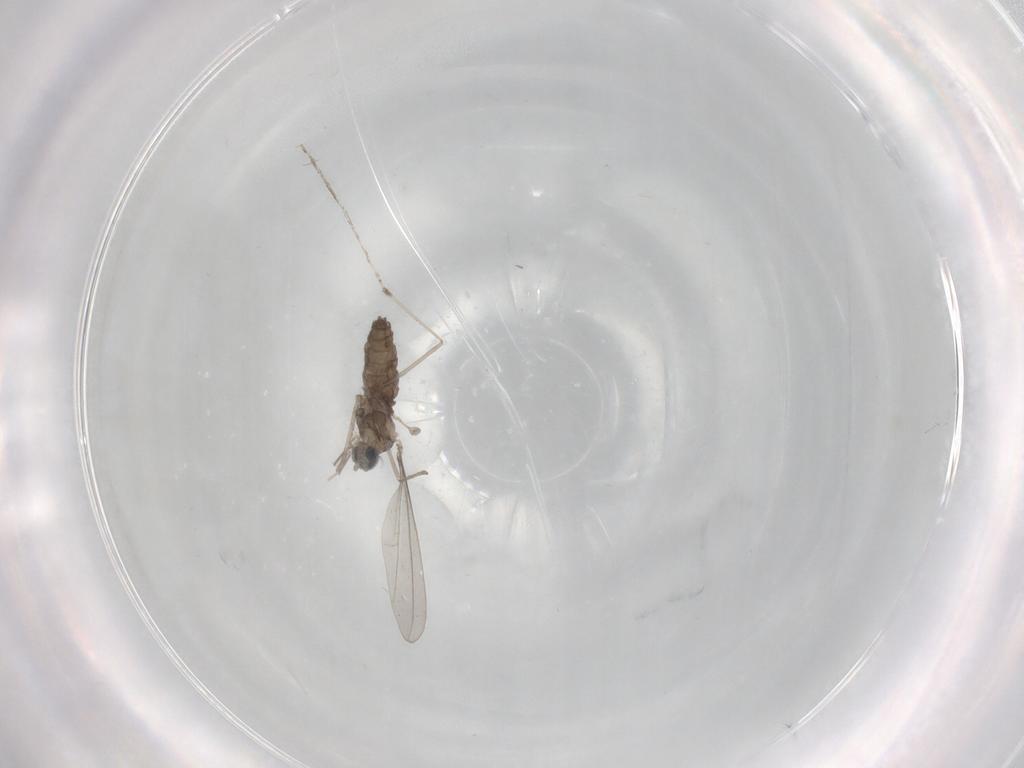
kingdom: Animalia
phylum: Arthropoda
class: Insecta
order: Diptera
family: Cecidomyiidae
